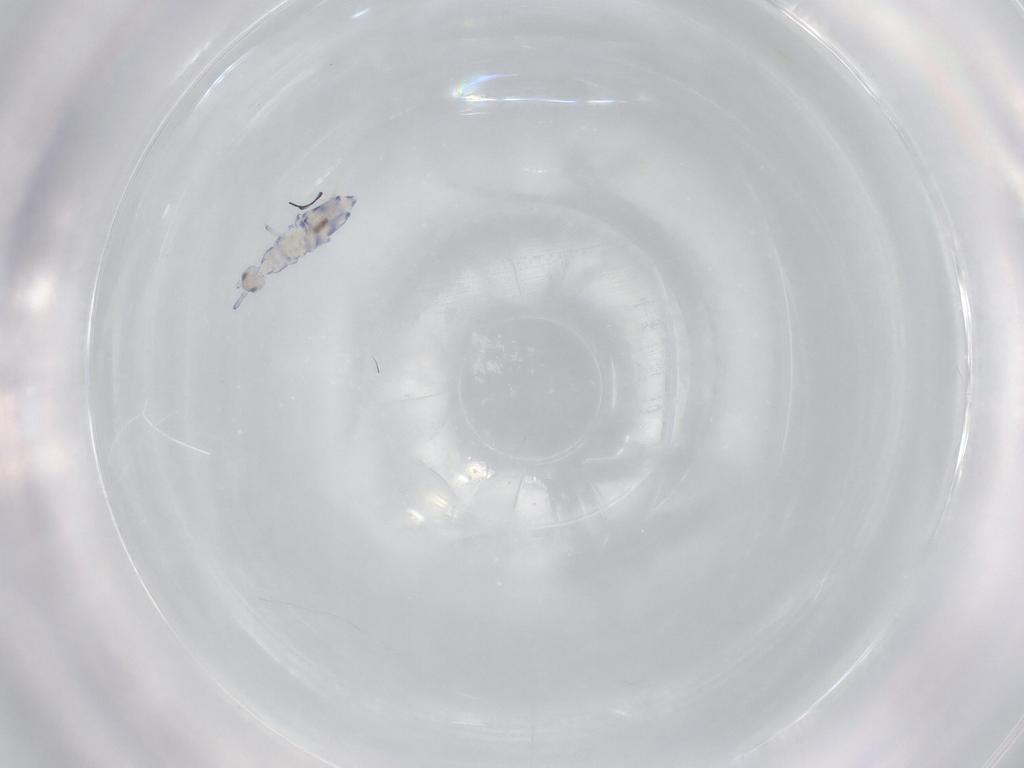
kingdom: Animalia
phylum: Arthropoda
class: Collembola
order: Entomobryomorpha
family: Entomobryidae
